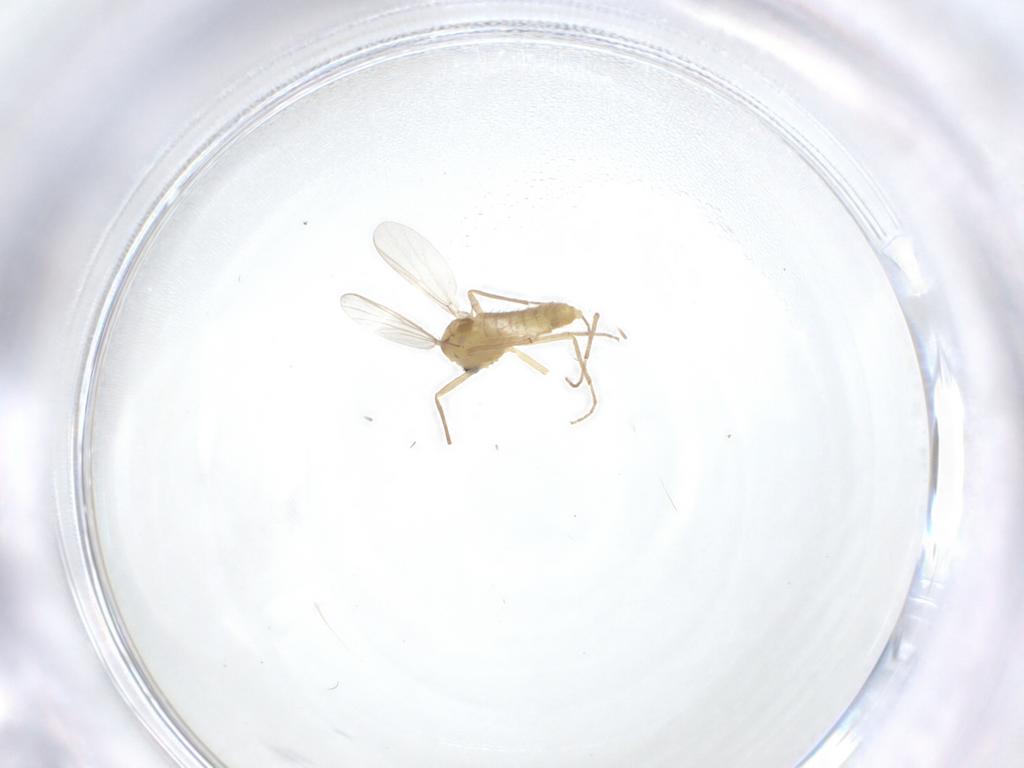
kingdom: Animalia
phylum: Arthropoda
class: Insecta
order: Diptera
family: Chironomidae
